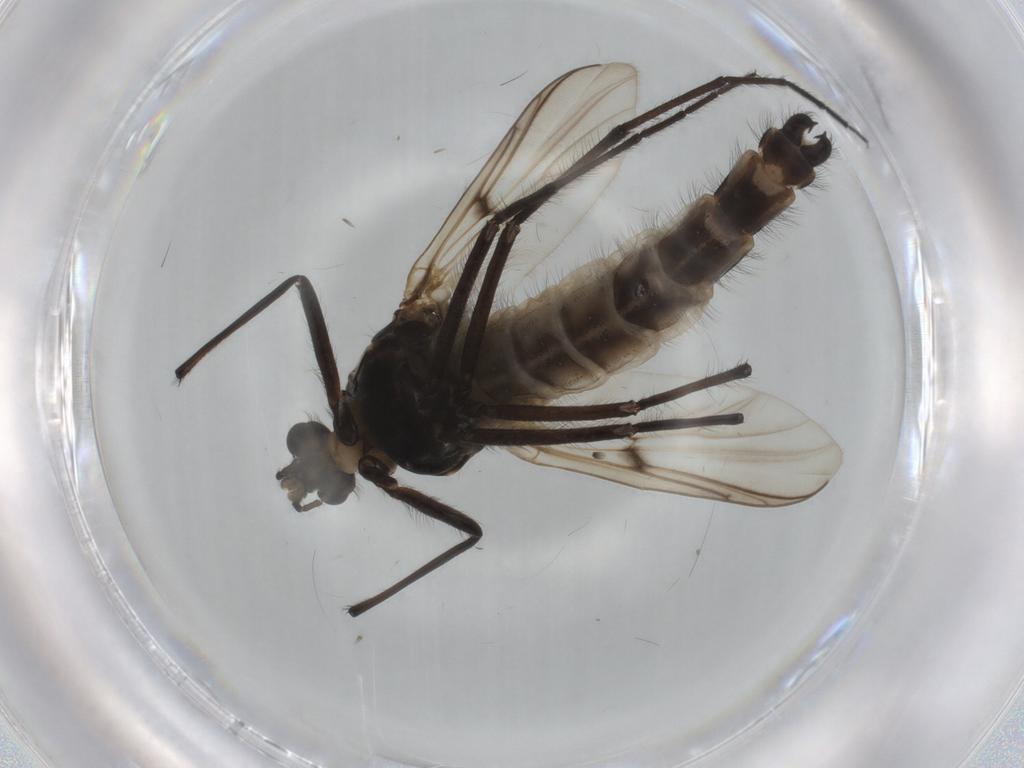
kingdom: Animalia
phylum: Arthropoda
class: Insecta
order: Diptera
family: Chironomidae
